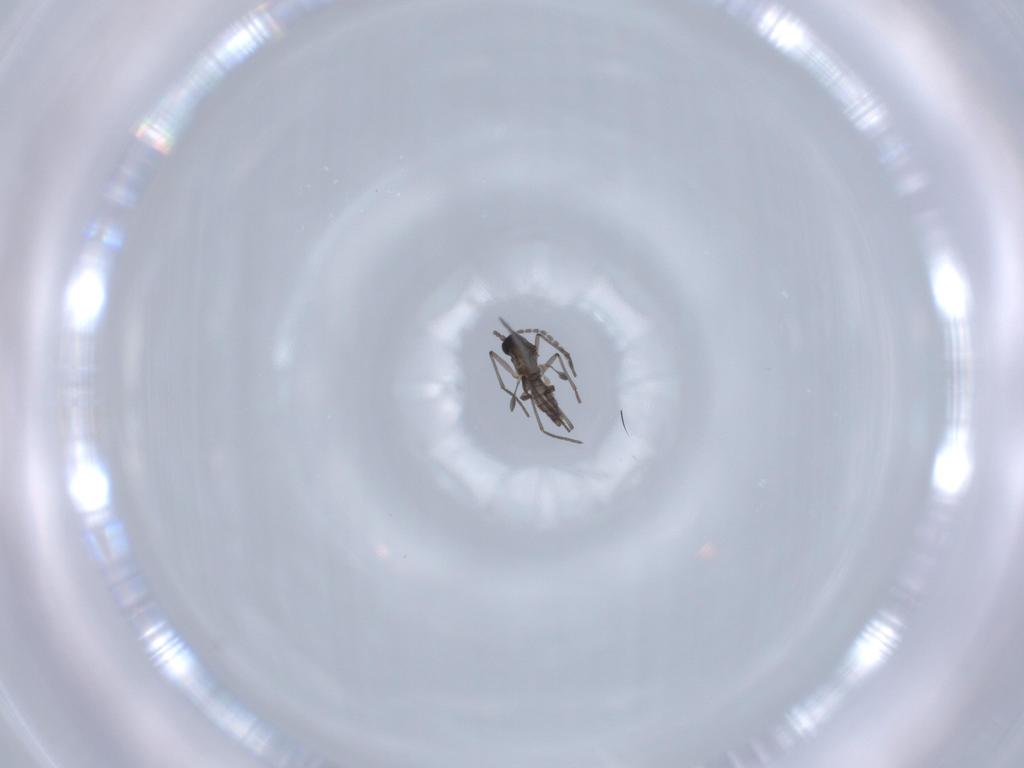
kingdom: Animalia
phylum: Arthropoda
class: Insecta
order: Diptera
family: Sciaridae
